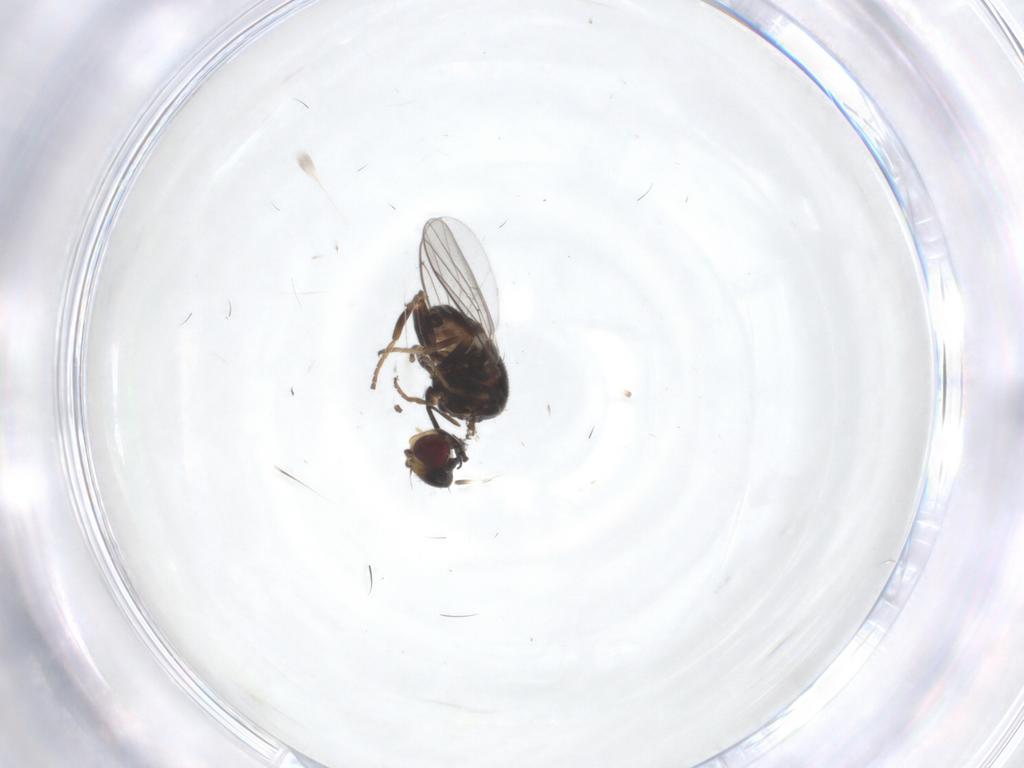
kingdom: Animalia
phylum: Arthropoda
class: Insecta
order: Diptera
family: Chloropidae
